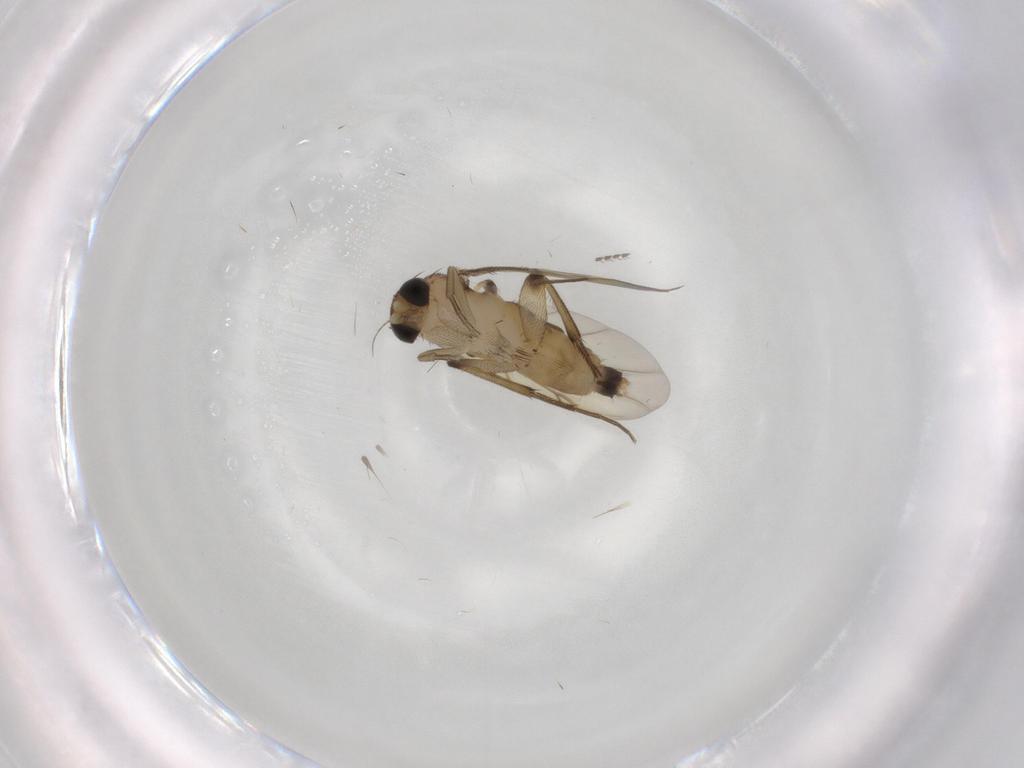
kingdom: Animalia
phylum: Arthropoda
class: Insecta
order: Diptera
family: Phoridae
